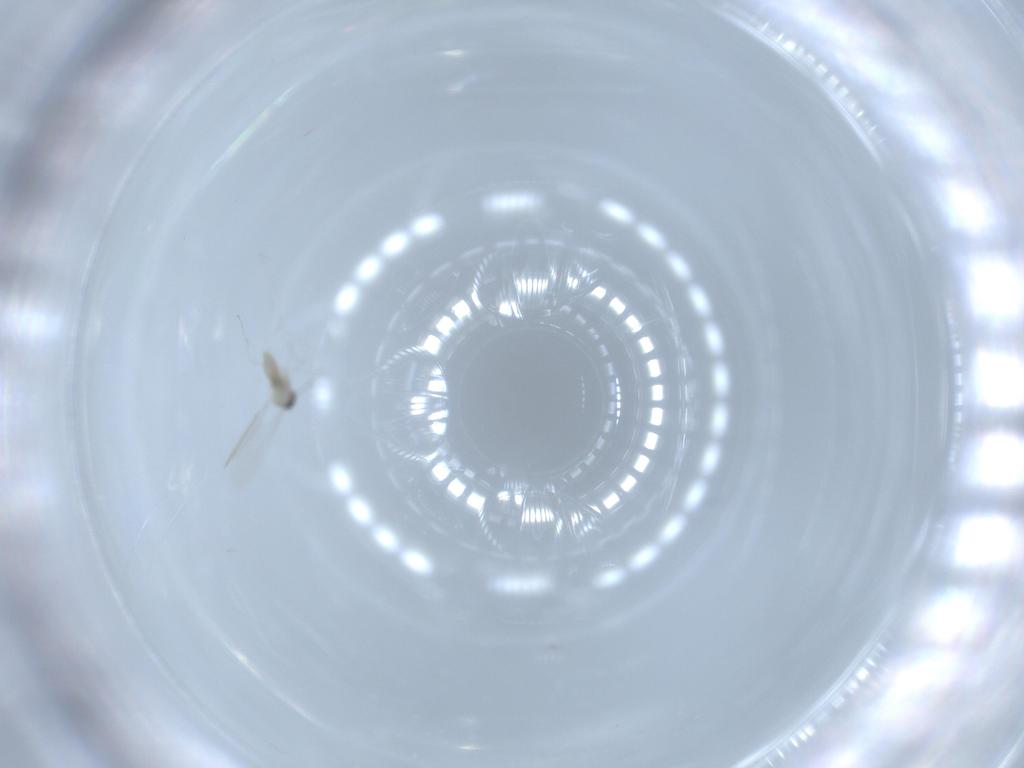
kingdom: Animalia
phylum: Arthropoda
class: Insecta
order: Diptera
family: Cecidomyiidae
